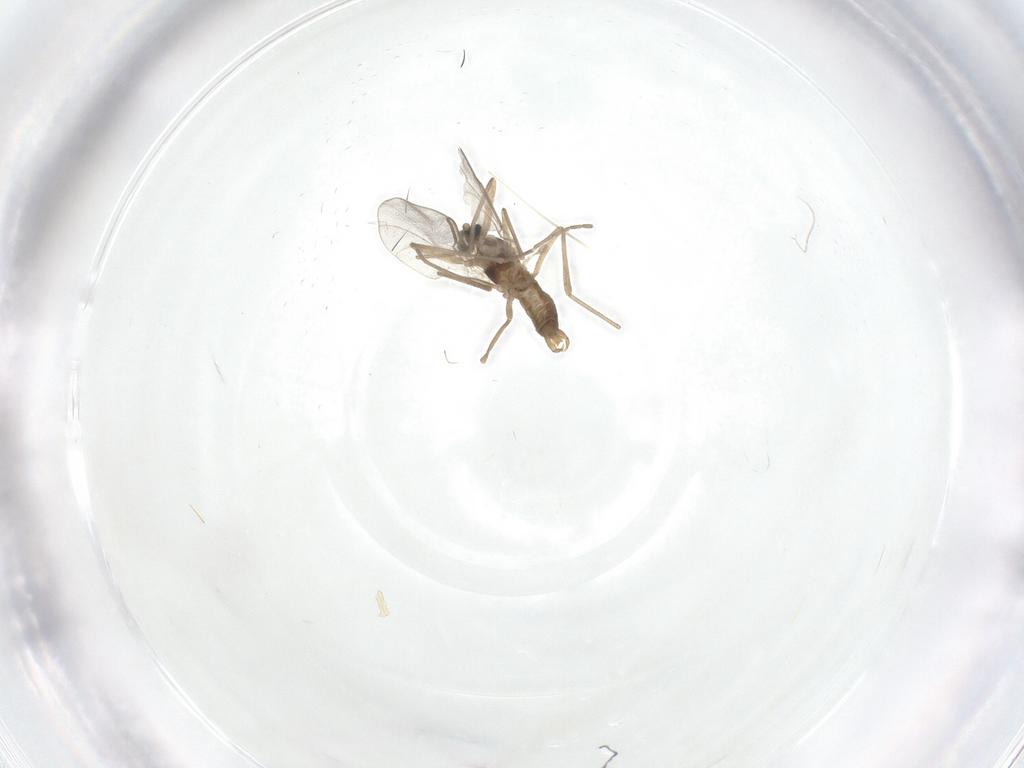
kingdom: Animalia
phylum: Arthropoda
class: Insecta
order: Diptera
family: Cecidomyiidae
